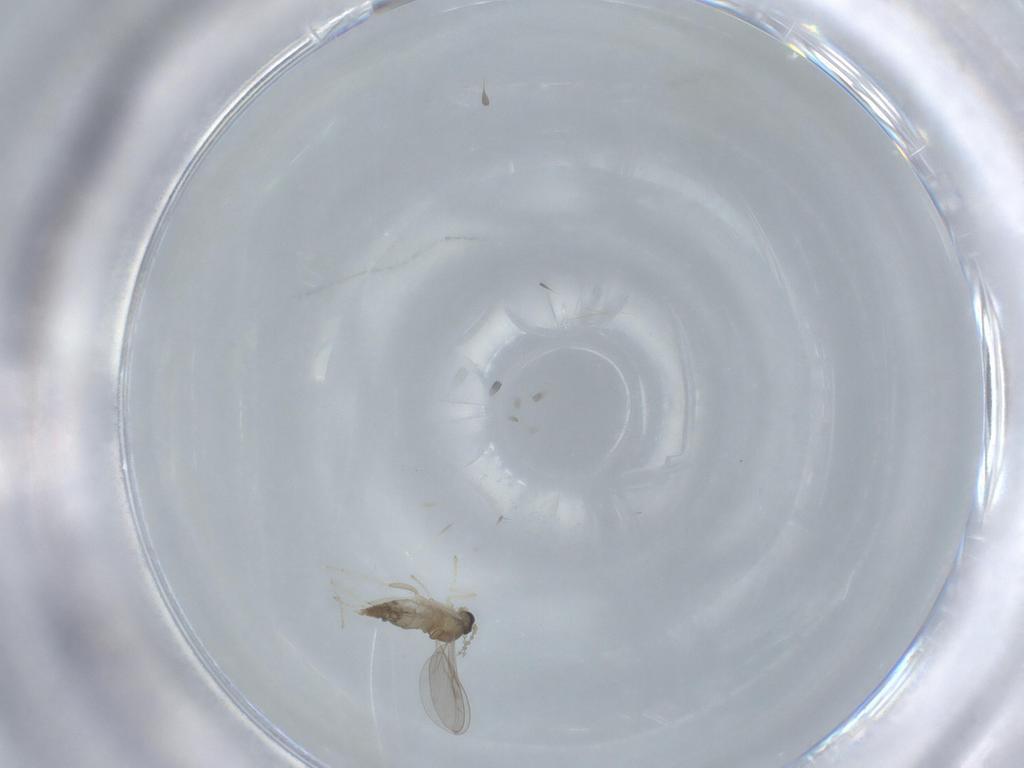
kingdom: Animalia
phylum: Arthropoda
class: Insecta
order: Diptera
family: Cecidomyiidae
